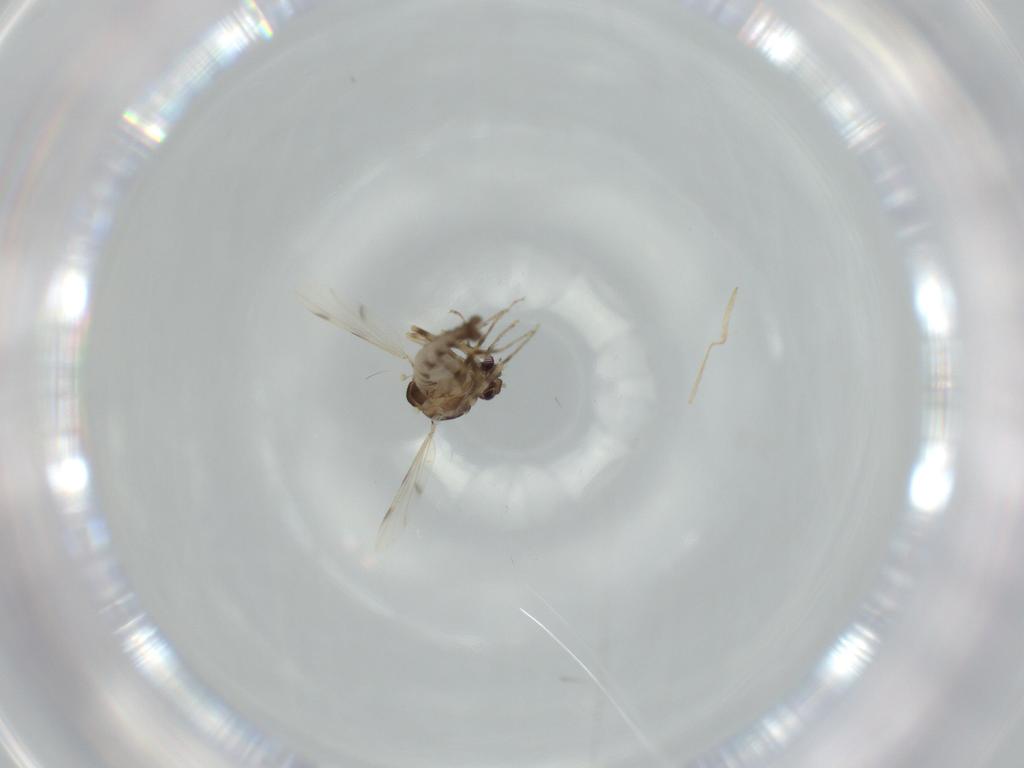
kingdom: Animalia
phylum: Arthropoda
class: Insecta
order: Diptera
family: Ceratopogonidae
